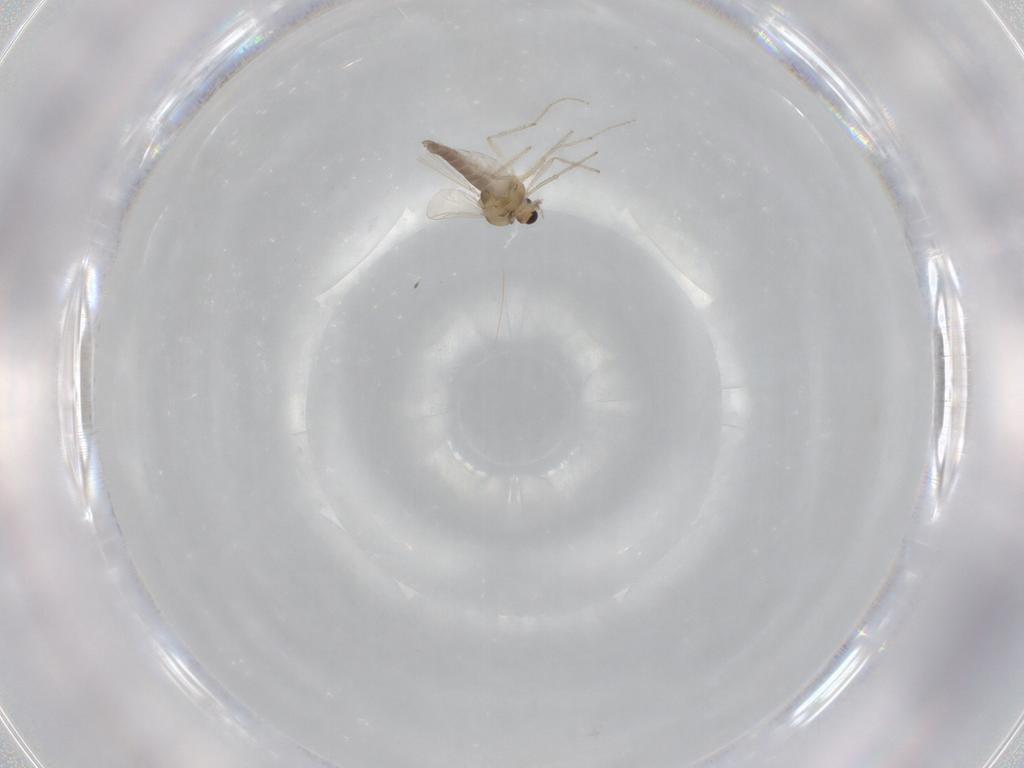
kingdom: Animalia
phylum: Arthropoda
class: Insecta
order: Diptera
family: Chironomidae
